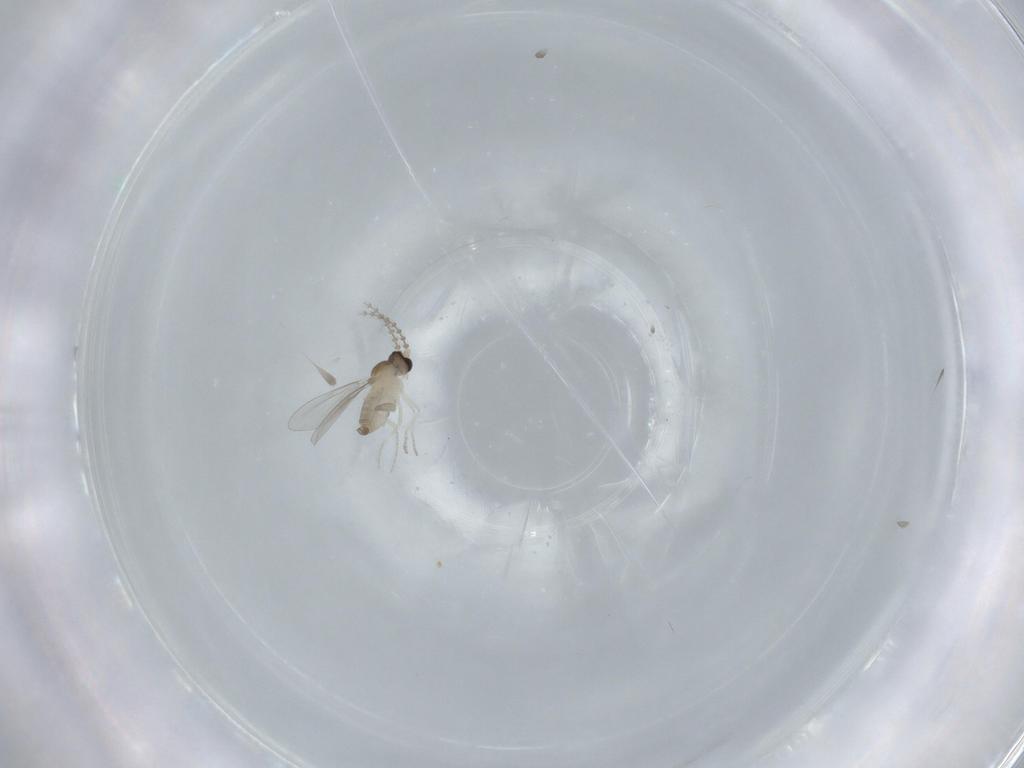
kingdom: Animalia
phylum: Arthropoda
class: Insecta
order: Diptera
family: Cecidomyiidae
